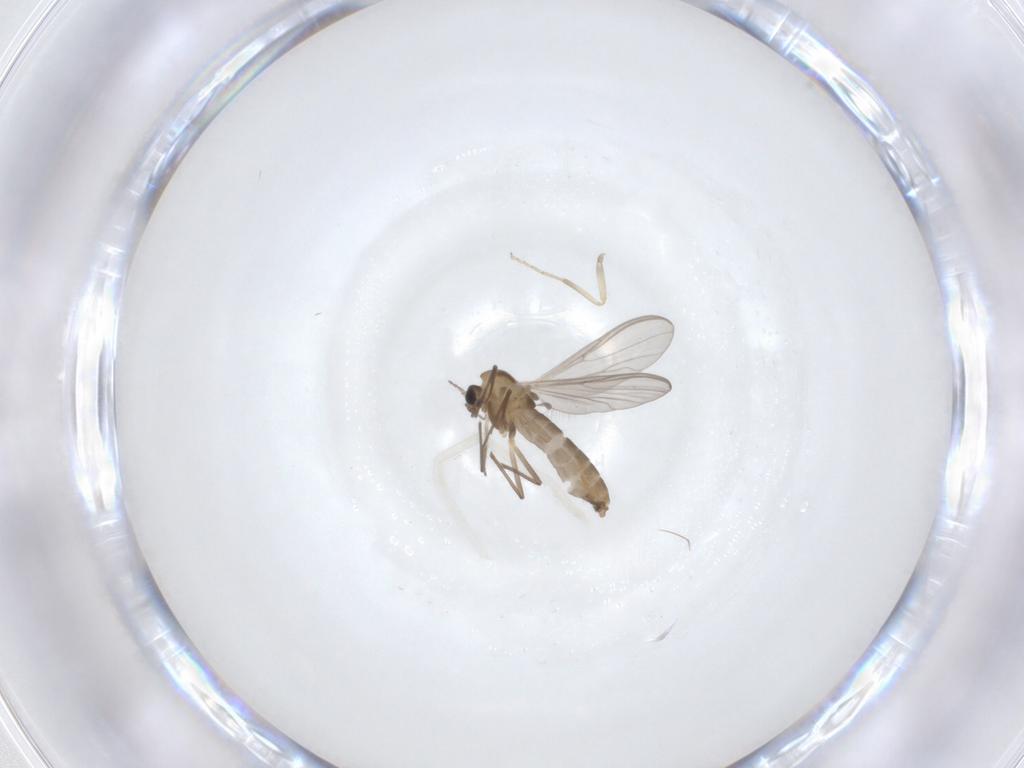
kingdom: Animalia
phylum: Arthropoda
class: Insecta
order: Diptera
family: Chironomidae
